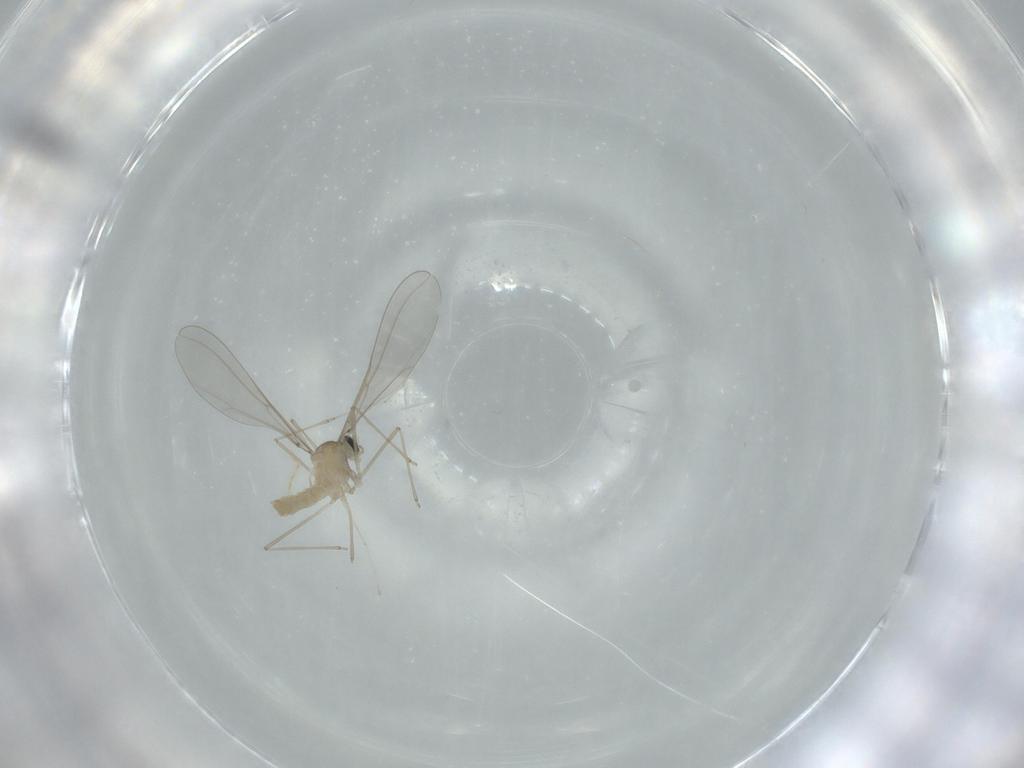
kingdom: Animalia
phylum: Arthropoda
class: Insecta
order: Diptera
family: Cecidomyiidae
